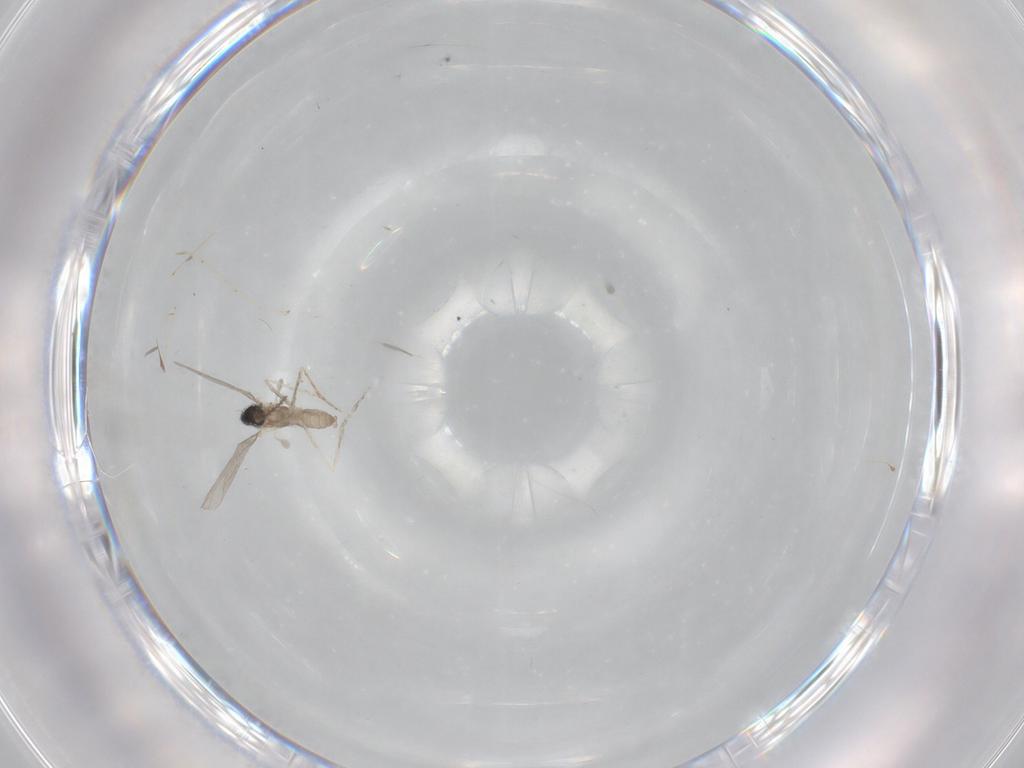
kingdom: Animalia
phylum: Arthropoda
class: Insecta
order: Diptera
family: Cecidomyiidae
